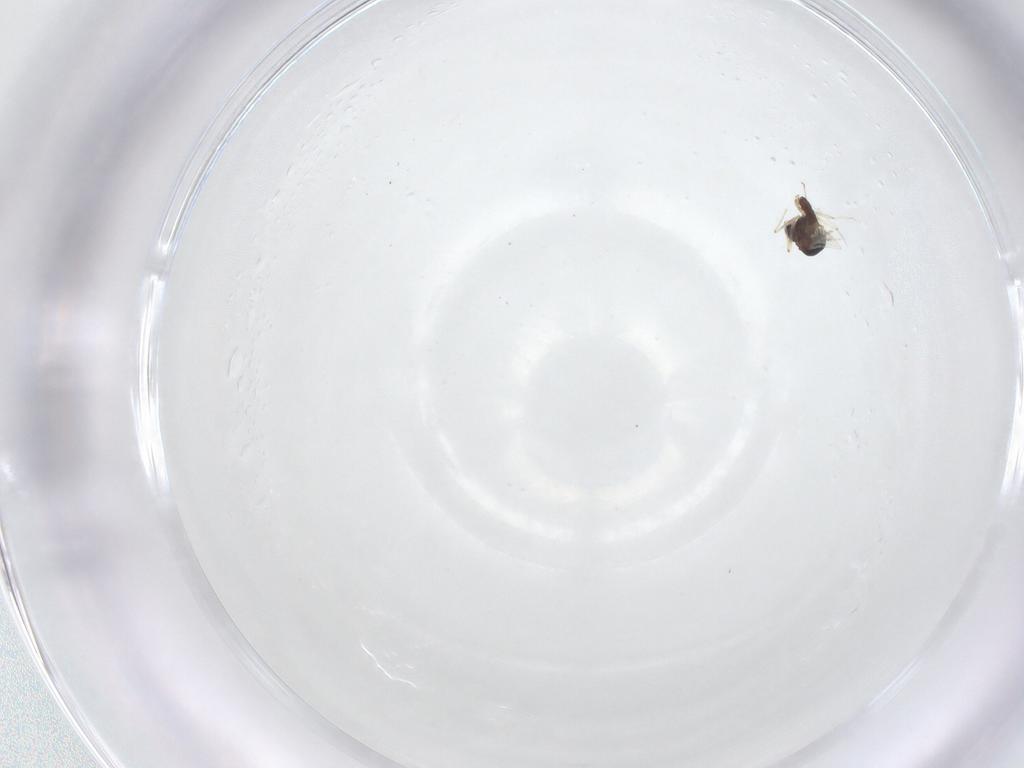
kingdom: Animalia
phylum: Arthropoda
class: Insecta
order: Diptera
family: Chironomidae
